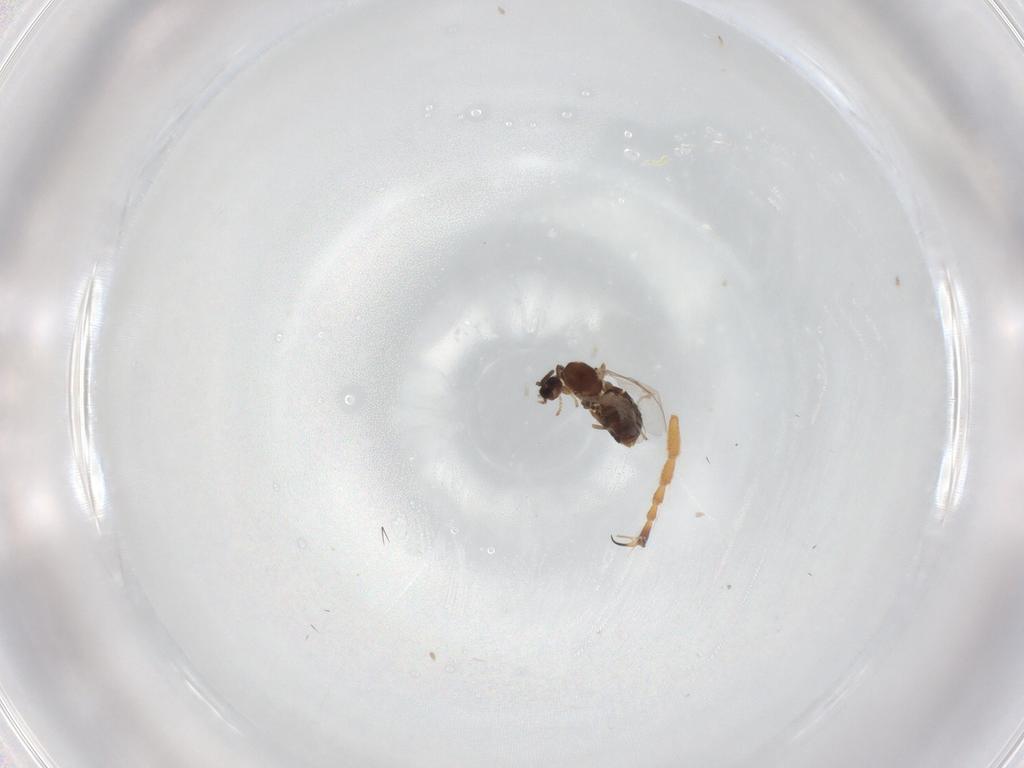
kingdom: Animalia
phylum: Arthropoda
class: Insecta
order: Diptera
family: Scatopsidae
